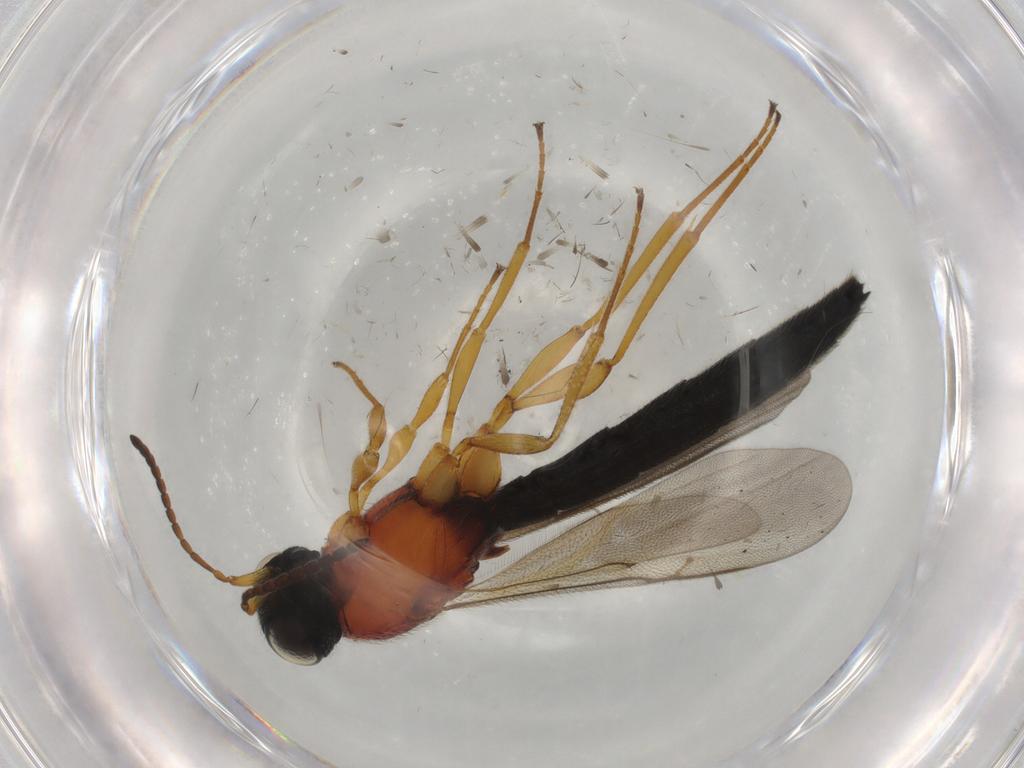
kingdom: Animalia
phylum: Arthropoda
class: Insecta
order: Hymenoptera
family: Scelionidae
